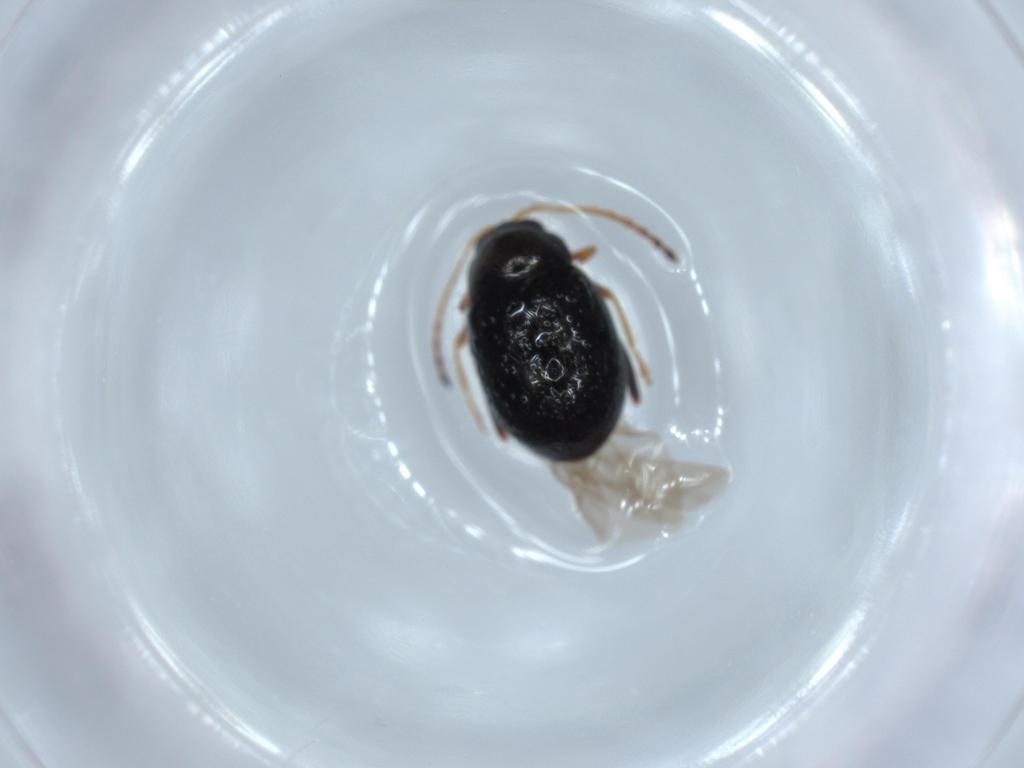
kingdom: Animalia
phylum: Arthropoda
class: Insecta
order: Coleoptera
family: Chrysomelidae
